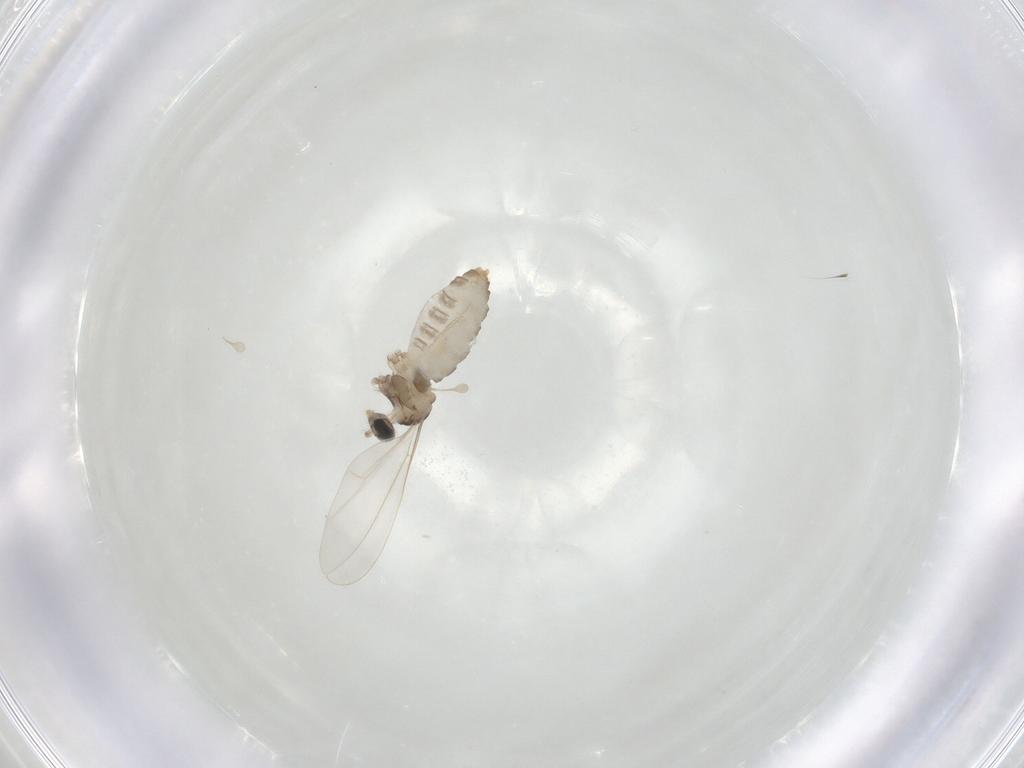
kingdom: Animalia
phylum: Arthropoda
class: Insecta
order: Diptera
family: Cecidomyiidae
